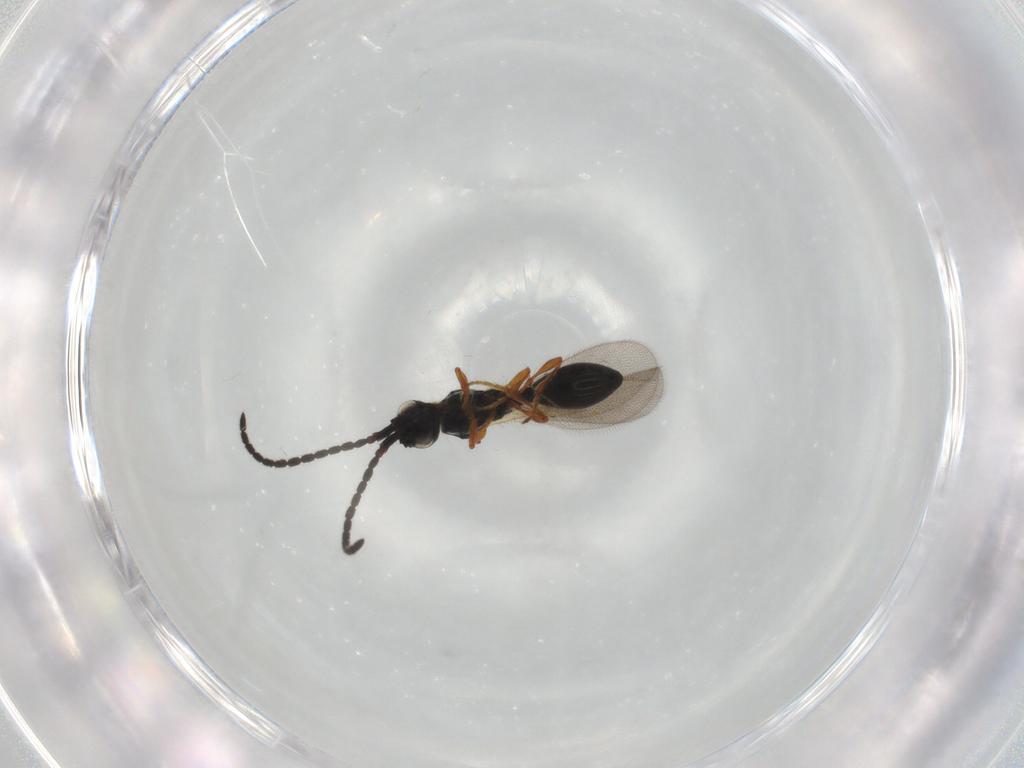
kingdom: Animalia
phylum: Arthropoda
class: Insecta
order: Hymenoptera
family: Diapriidae
